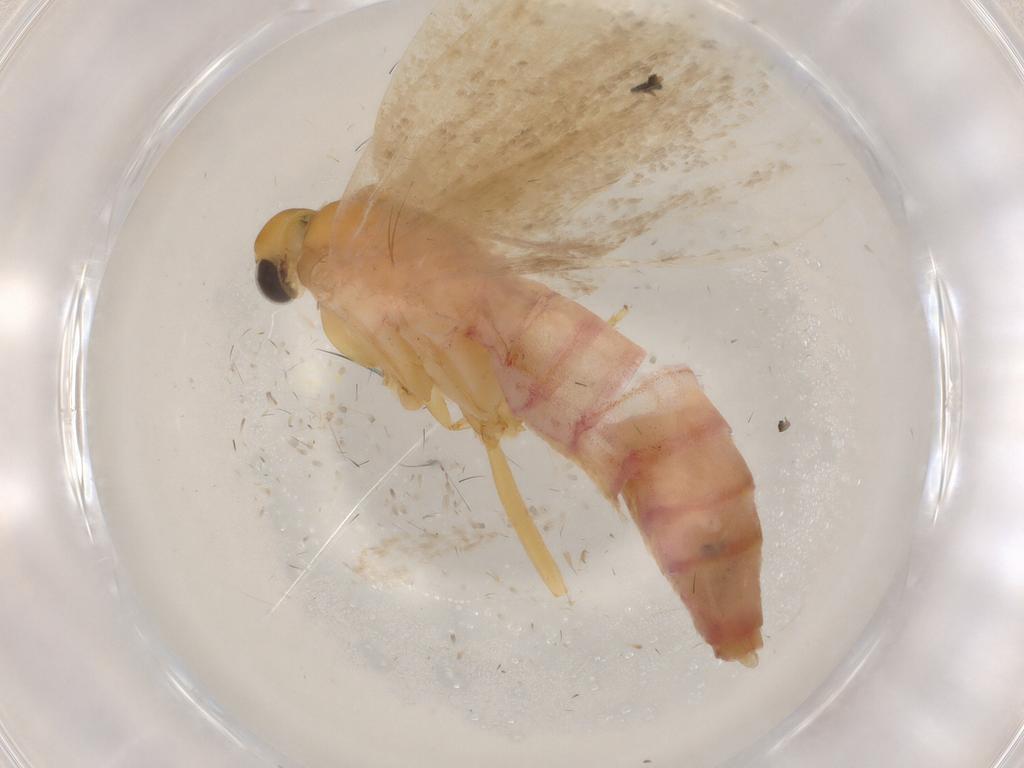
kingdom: Animalia
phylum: Arthropoda
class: Insecta
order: Lepidoptera
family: Autostichidae
